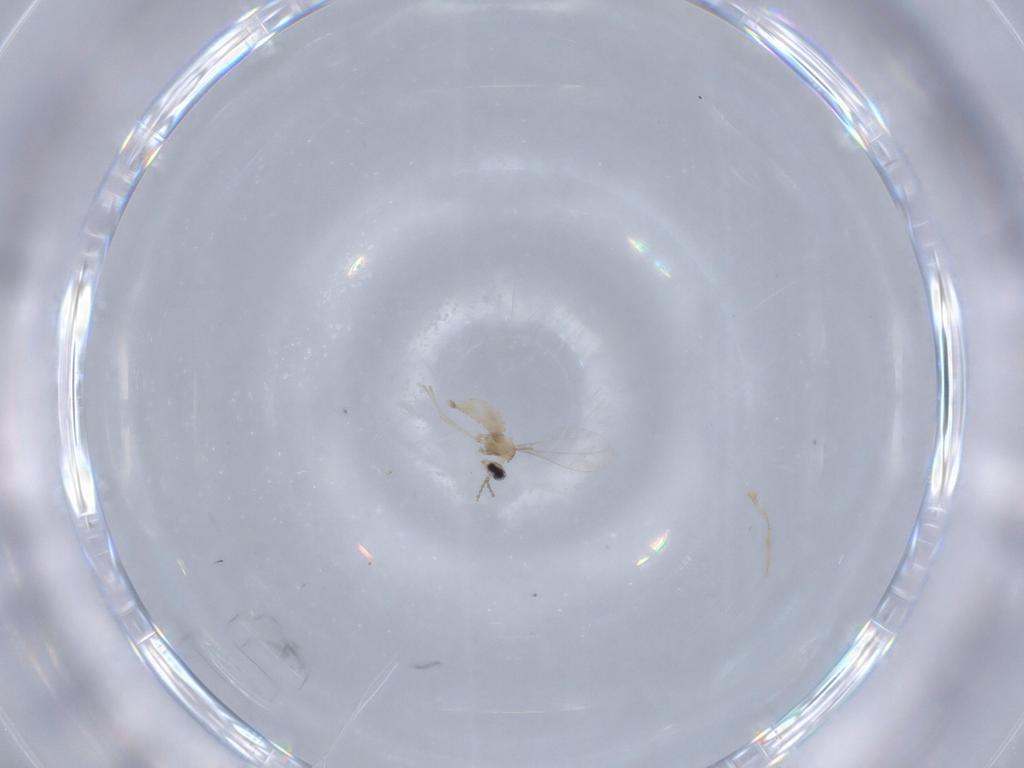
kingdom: Animalia
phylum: Arthropoda
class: Insecta
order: Diptera
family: Cecidomyiidae
